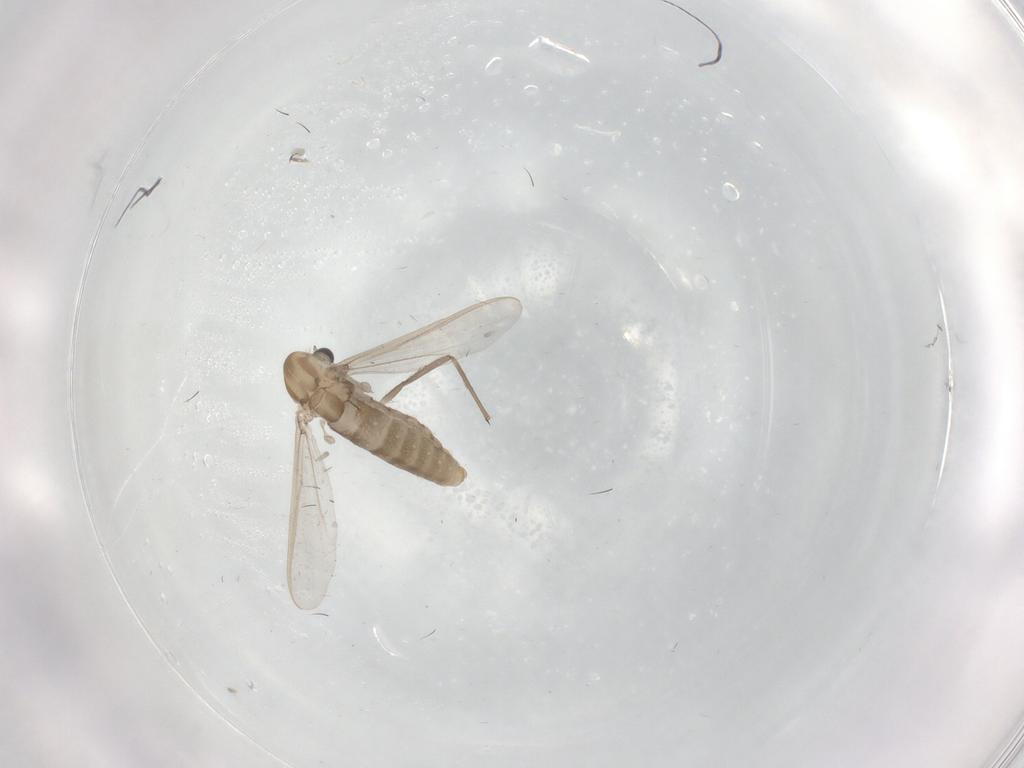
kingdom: Animalia
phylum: Arthropoda
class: Insecta
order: Diptera
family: Chironomidae
